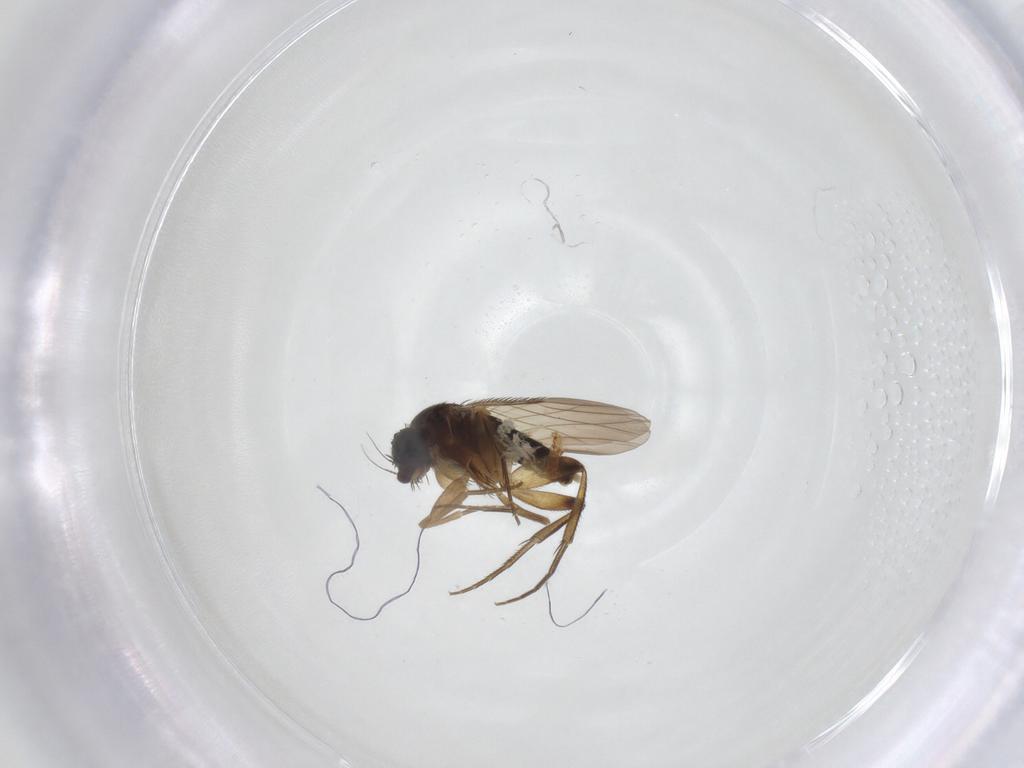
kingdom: Animalia
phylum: Arthropoda
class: Insecta
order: Diptera
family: Phoridae
